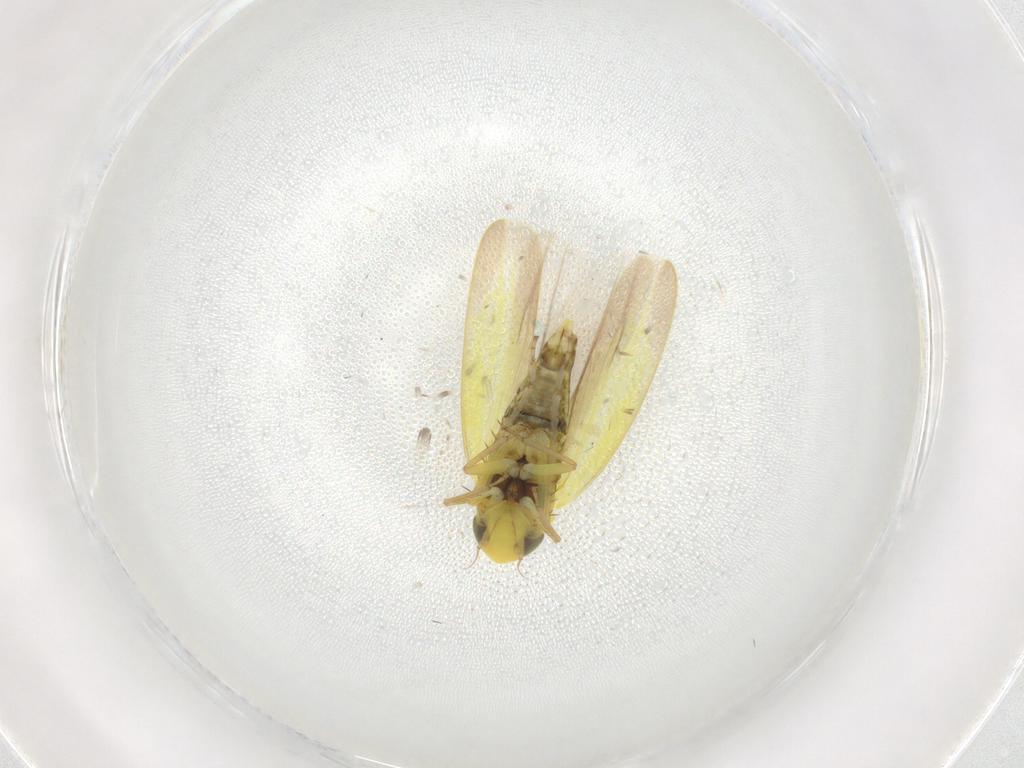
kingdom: Animalia
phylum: Arthropoda
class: Insecta
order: Hemiptera
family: Cicadellidae
